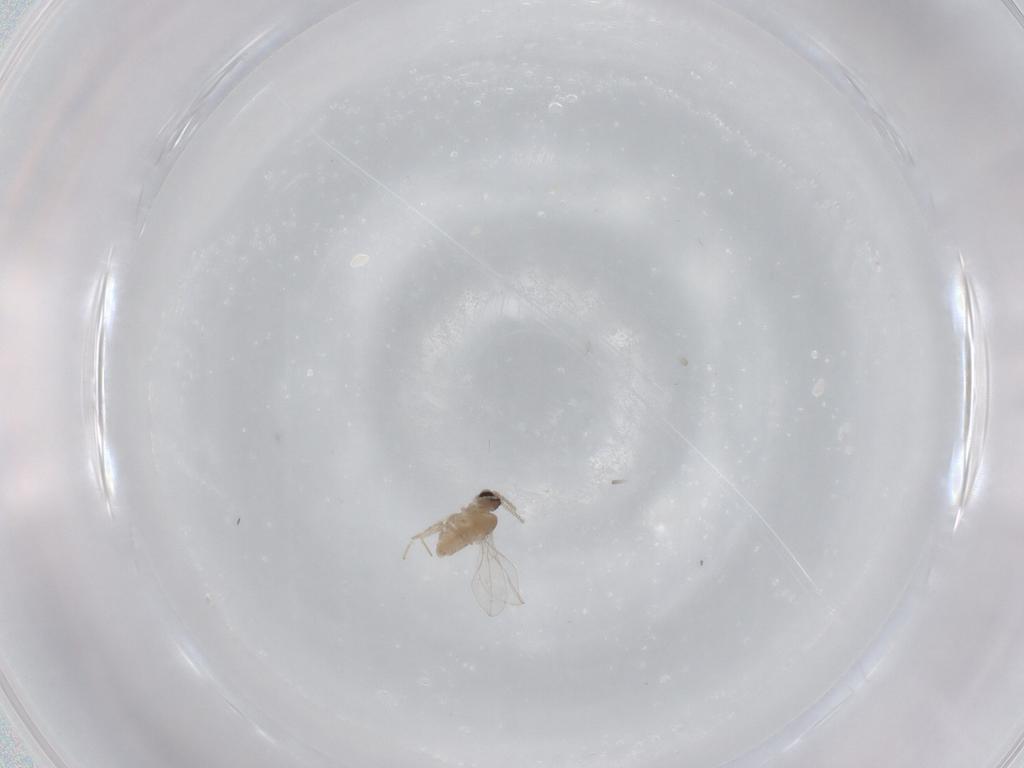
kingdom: Animalia
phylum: Arthropoda
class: Insecta
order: Diptera
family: Cecidomyiidae
